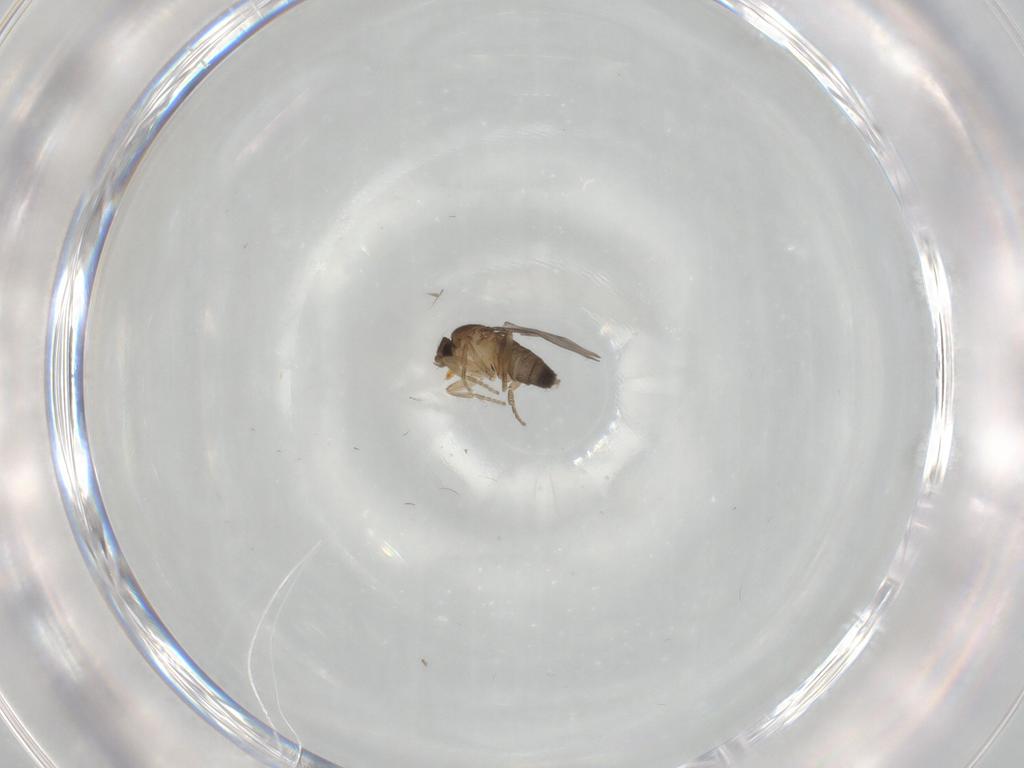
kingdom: Animalia
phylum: Arthropoda
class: Insecta
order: Diptera
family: Phoridae
